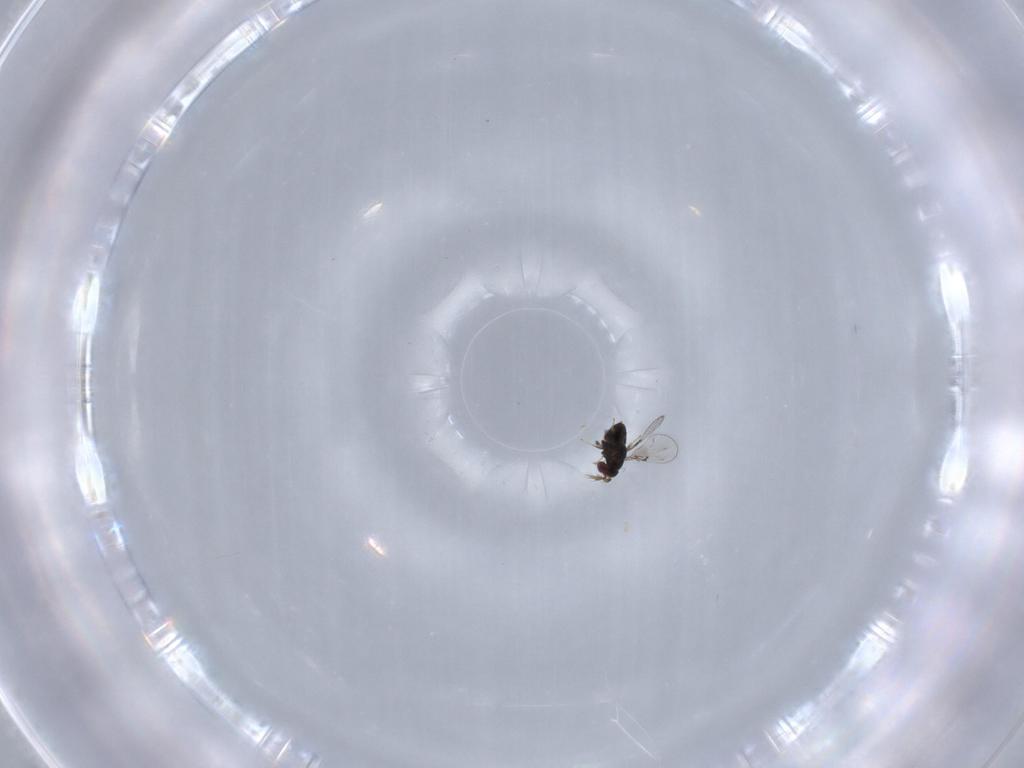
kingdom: Animalia
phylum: Arthropoda
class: Insecta
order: Hymenoptera
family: Trichogrammatidae
